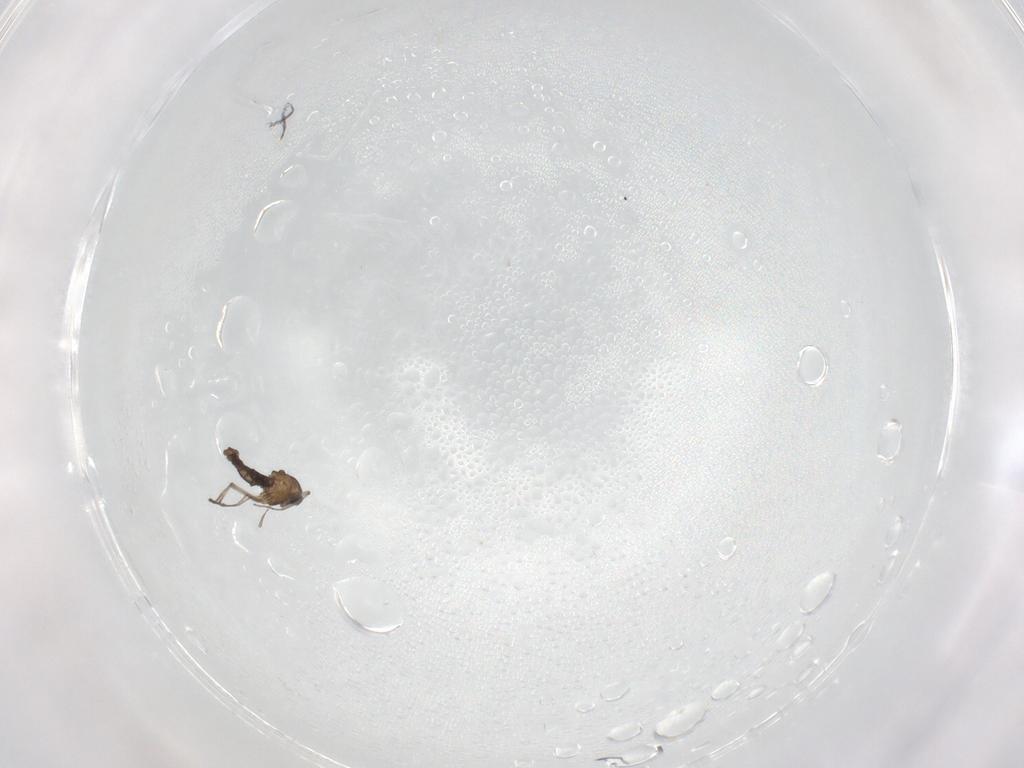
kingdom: Animalia
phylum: Arthropoda
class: Insecta
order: Diptera
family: Chironomidae
